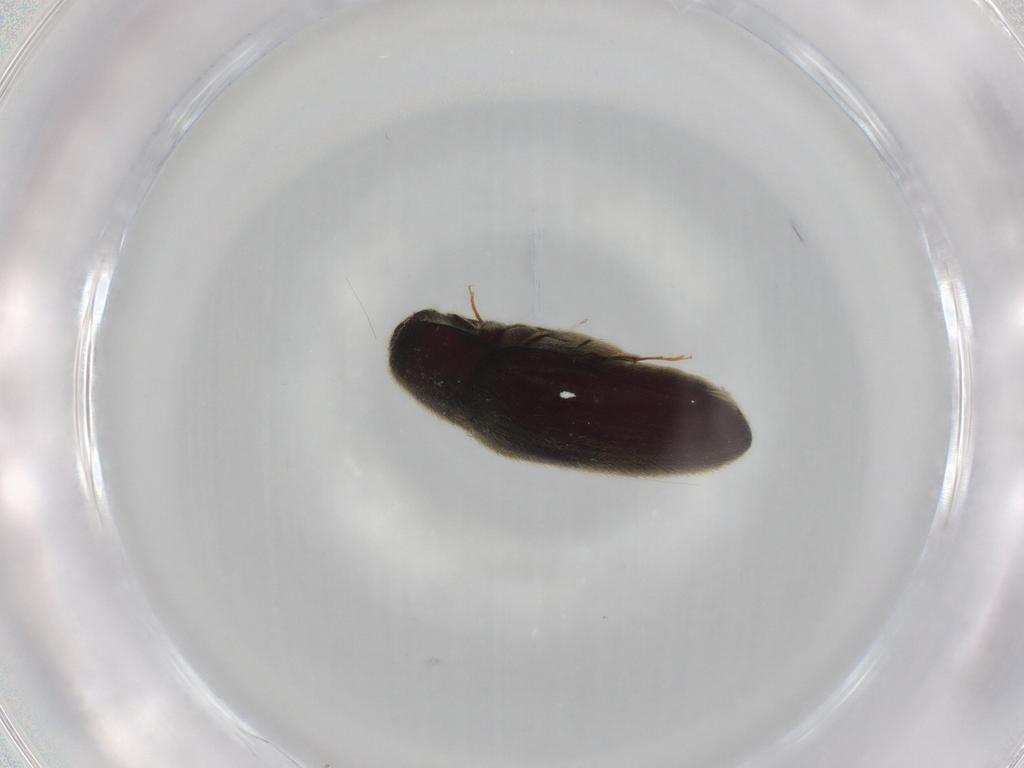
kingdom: Animalia
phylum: Arthropoda
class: Insecta
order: Coleoptera
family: Throscidae
